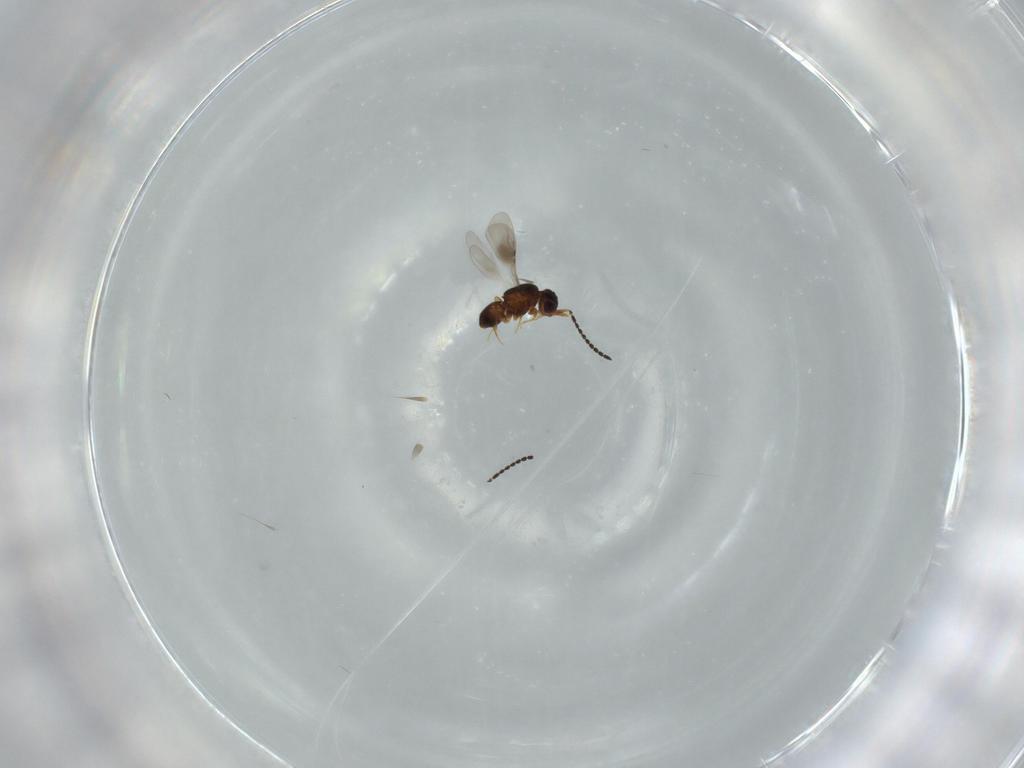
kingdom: Animalia
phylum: Arthropoda
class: Insecta
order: Hymenoptera
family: Ceraphronidae
